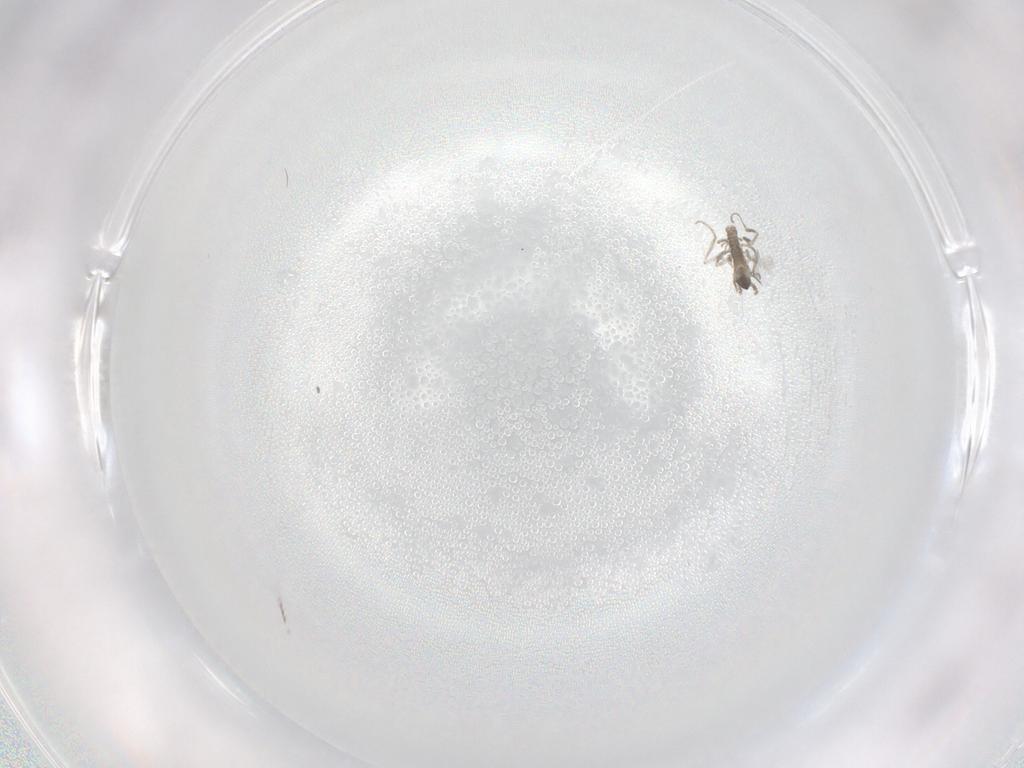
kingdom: Animalia
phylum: Arthropoda
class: Insecta
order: Diptera
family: Cecidomyiidae
